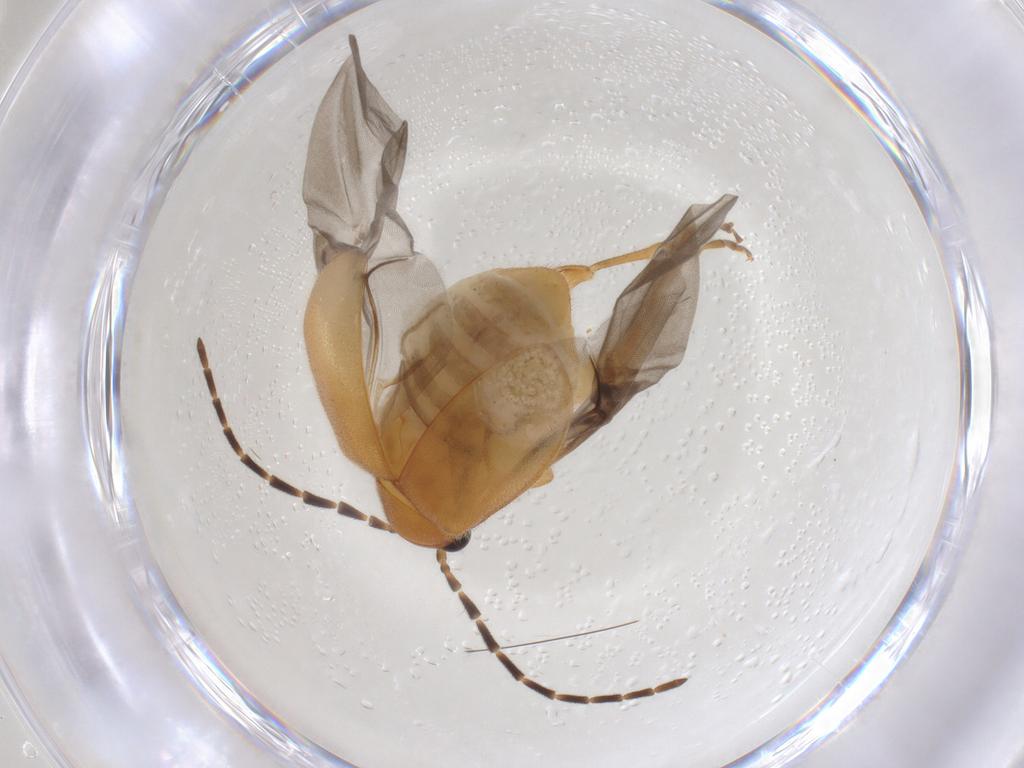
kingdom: Animalia
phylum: Arthropoda
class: Insecta
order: Coleoptera
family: Chrysomelidae
